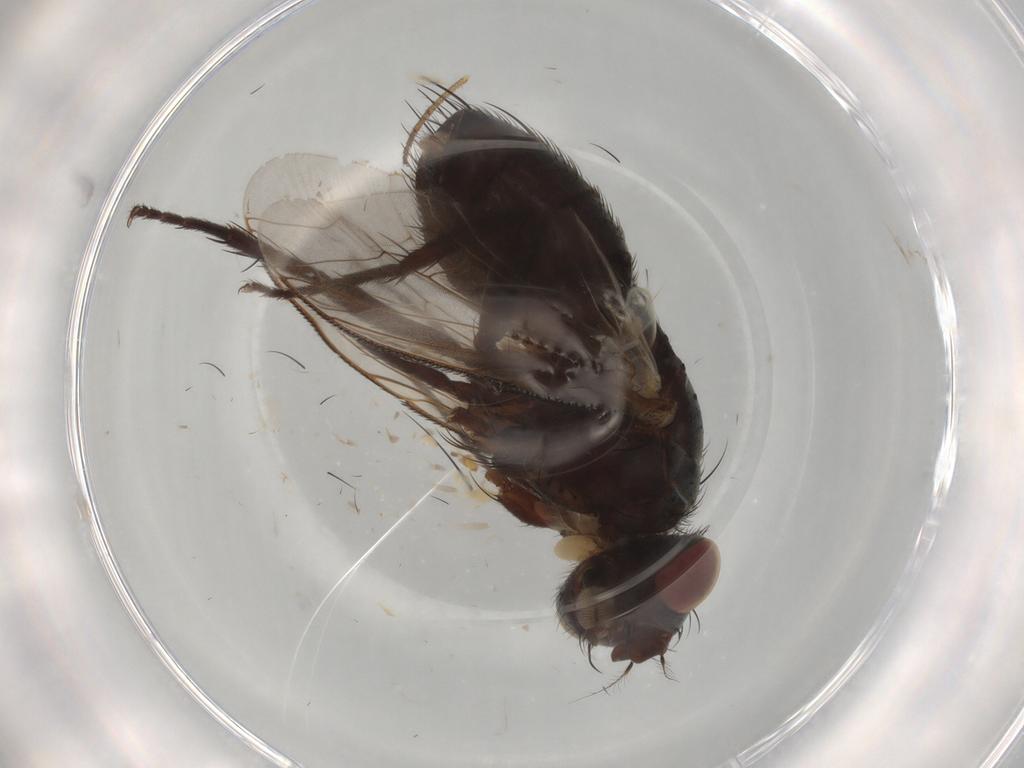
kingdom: Animalia
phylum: Arthropoda
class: Insecta
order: Diptera
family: Sarcophagidae
